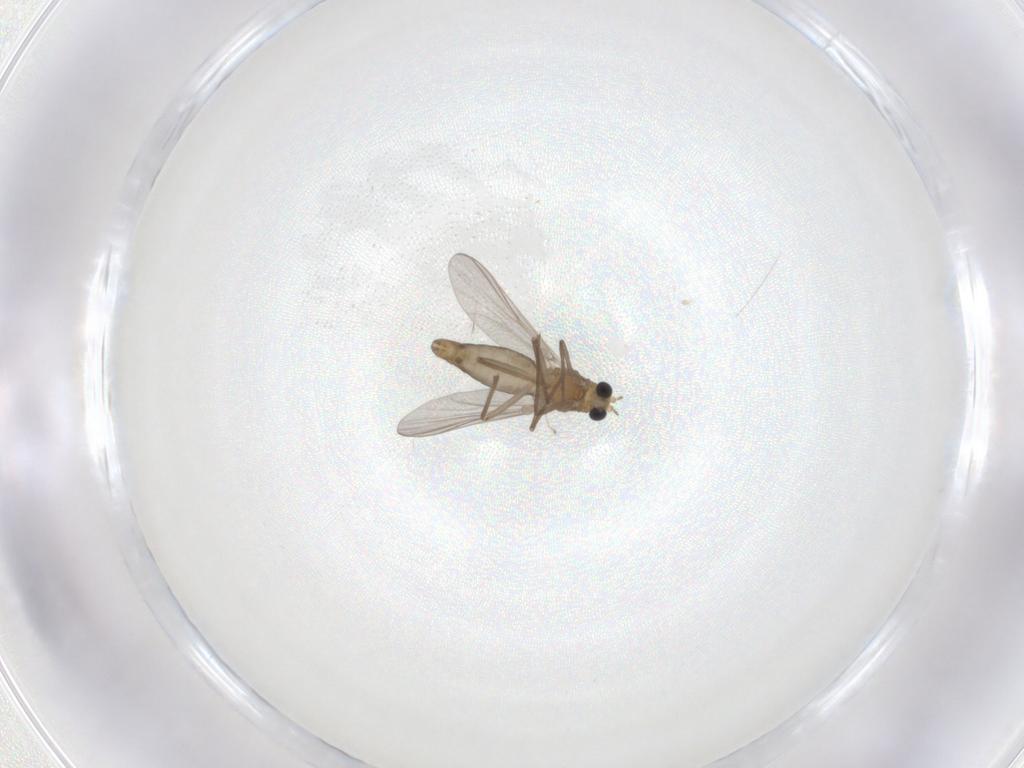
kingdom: Animalia
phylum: Arthropoda
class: Insecta
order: Diptera
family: Chironomidae
